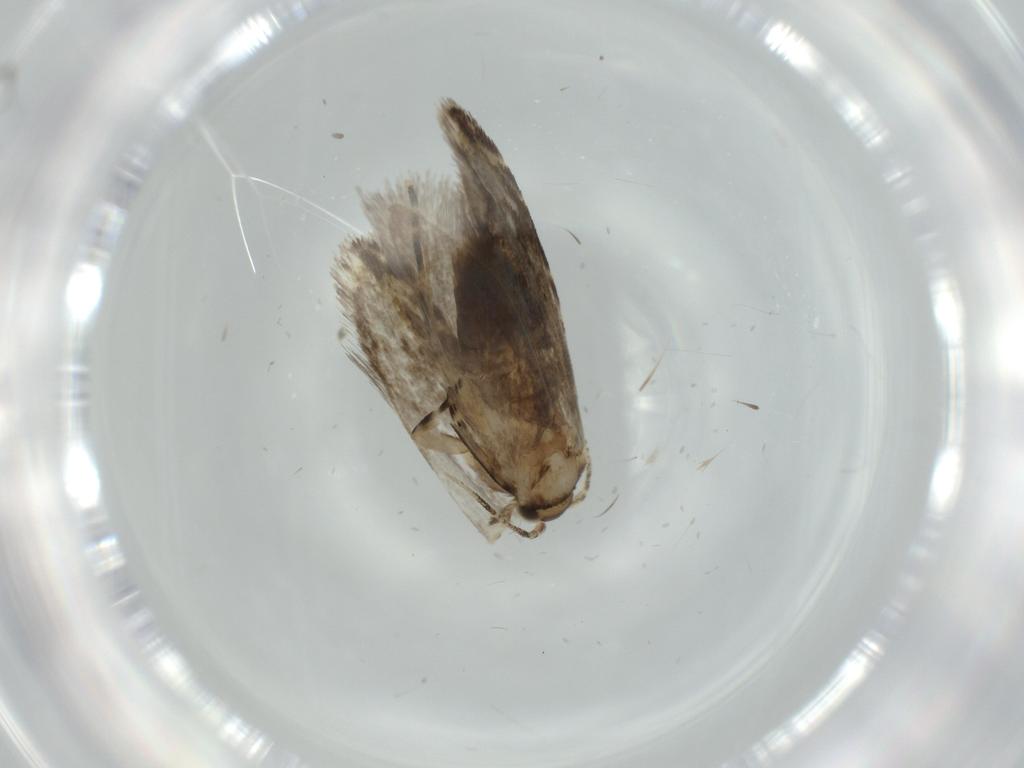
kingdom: Animalia
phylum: Arthropoda
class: Insecta
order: Lepidoptera
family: Tineidae
